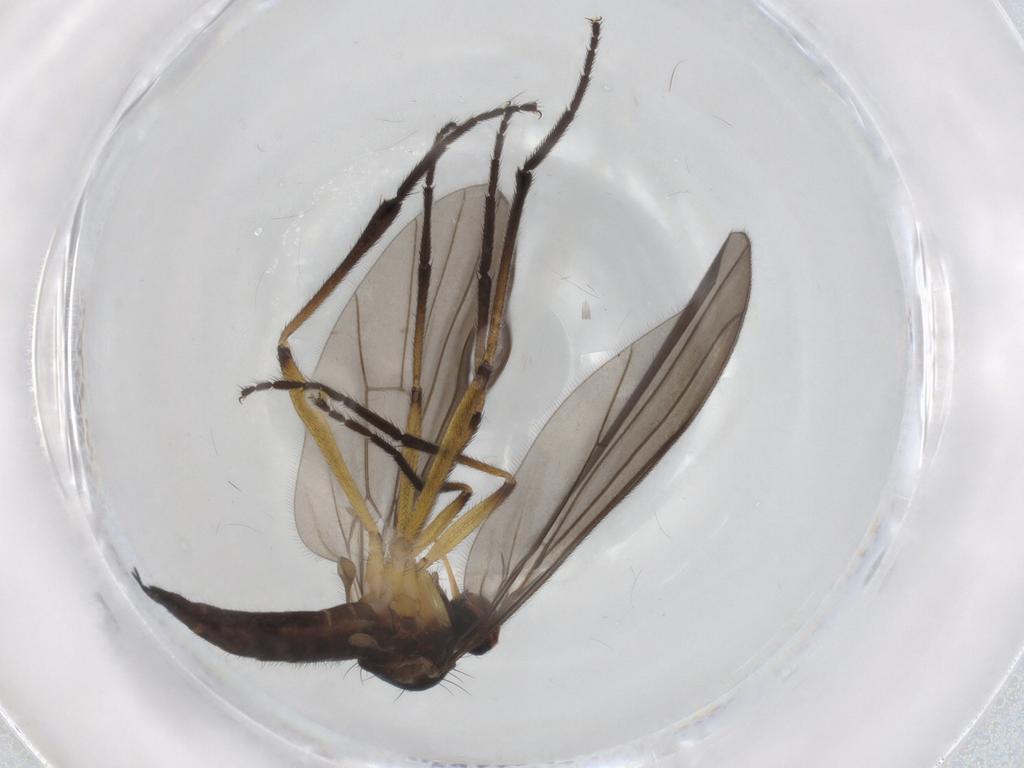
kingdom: Animalia
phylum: Arthropoda
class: Insecta
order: Diptera
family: Empididae
